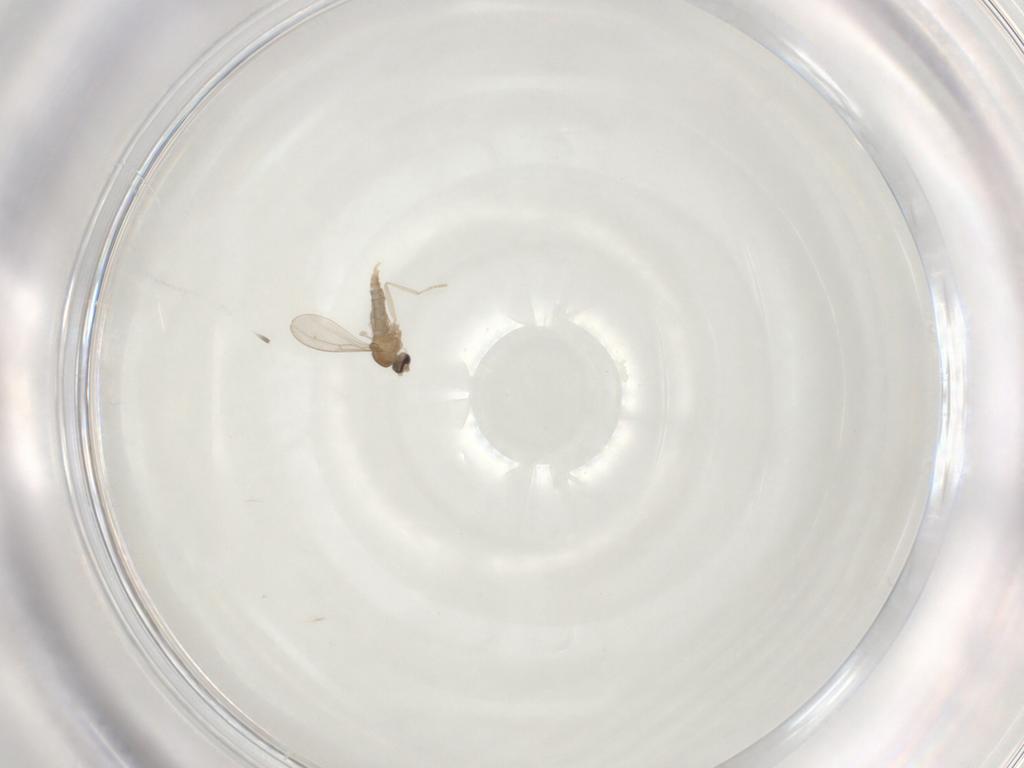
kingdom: Animalia
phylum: Arthropoda
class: Insecta
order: Diptera
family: Cecidomyiidae
